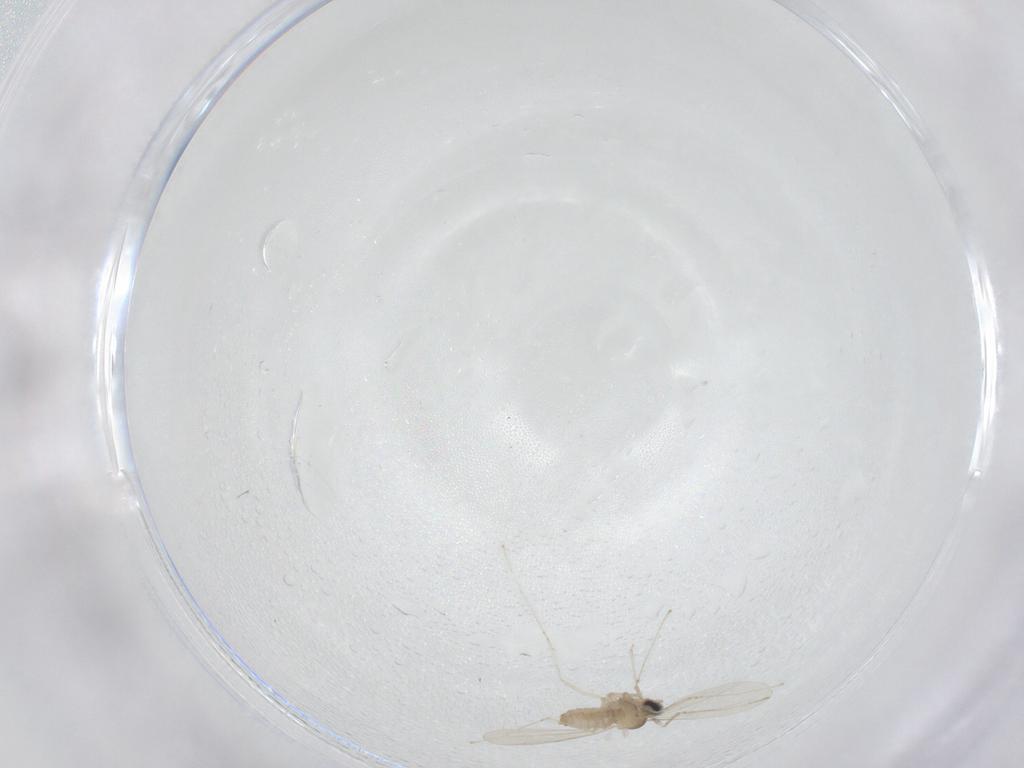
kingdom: Animalia
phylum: Arthropoda
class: Insecta
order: Diptera
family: Cecidomyiidae
